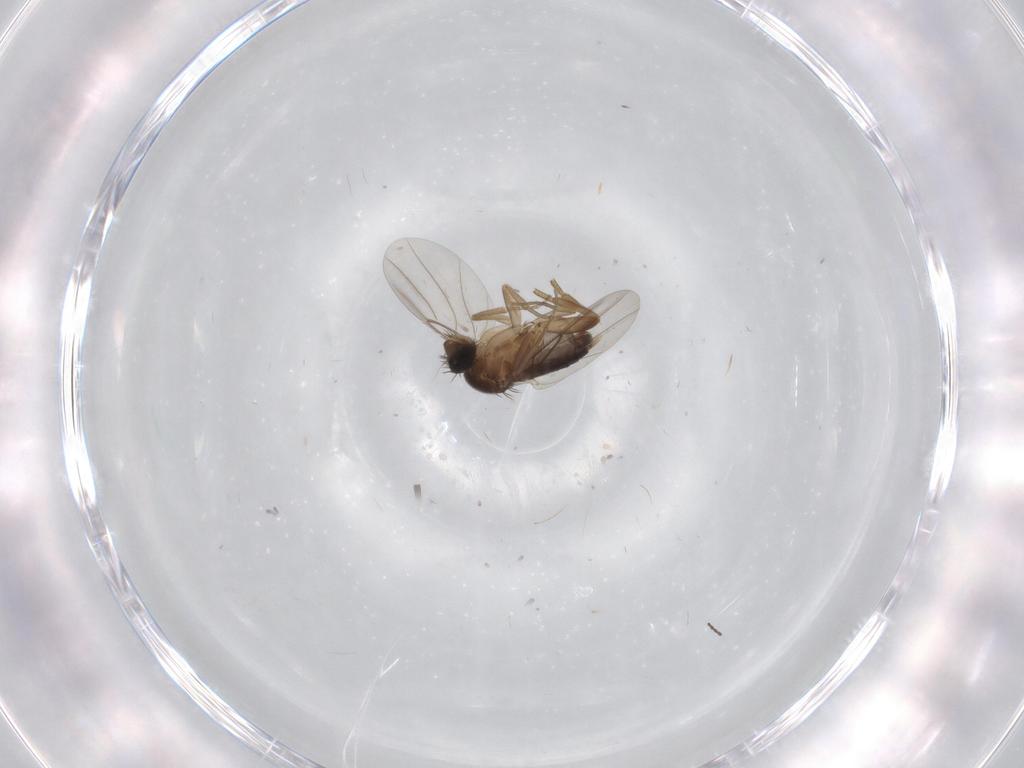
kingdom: Animalia
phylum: Arthropoda
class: Insecta
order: Diptera
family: Phoridae
